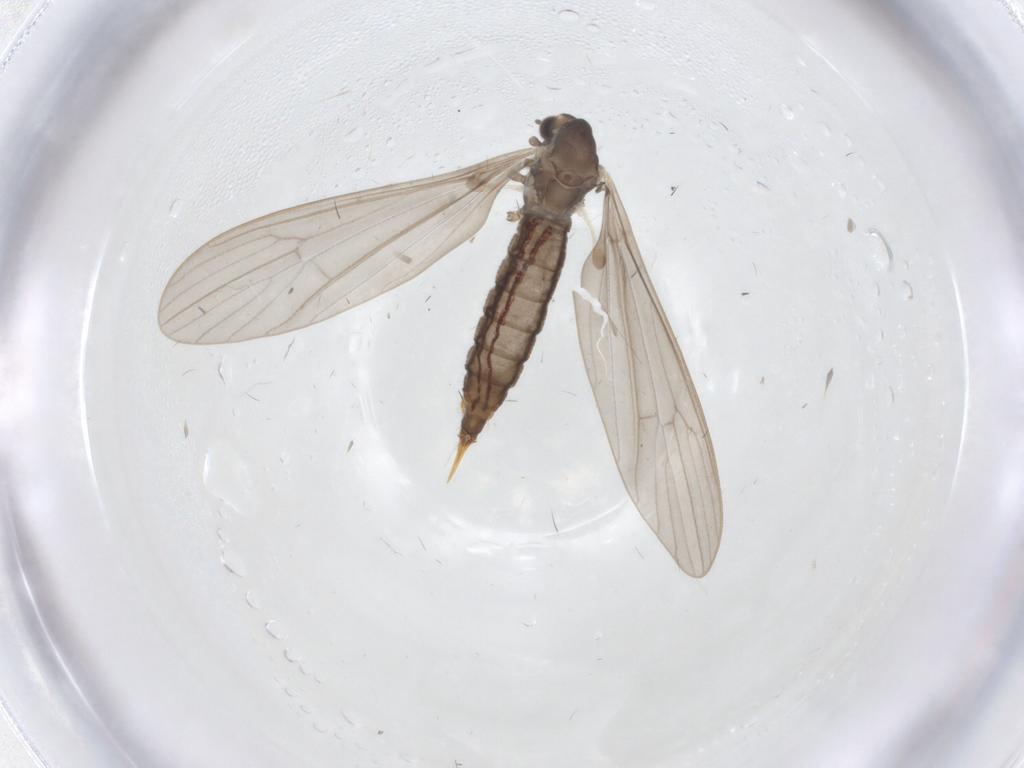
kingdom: Animalia
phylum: Arthropoda
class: Insecta
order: Diptera
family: Limoniidae
